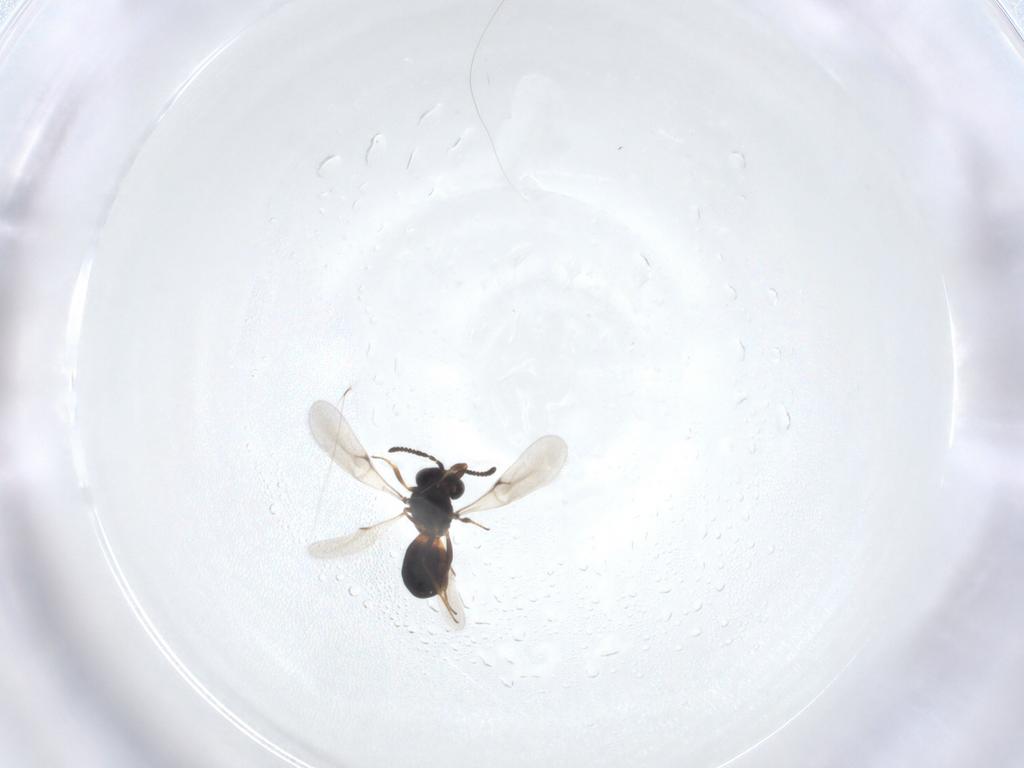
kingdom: Animalia
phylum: Arthropoda
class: Insecta
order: Hymenoptera
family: Scelionidae
